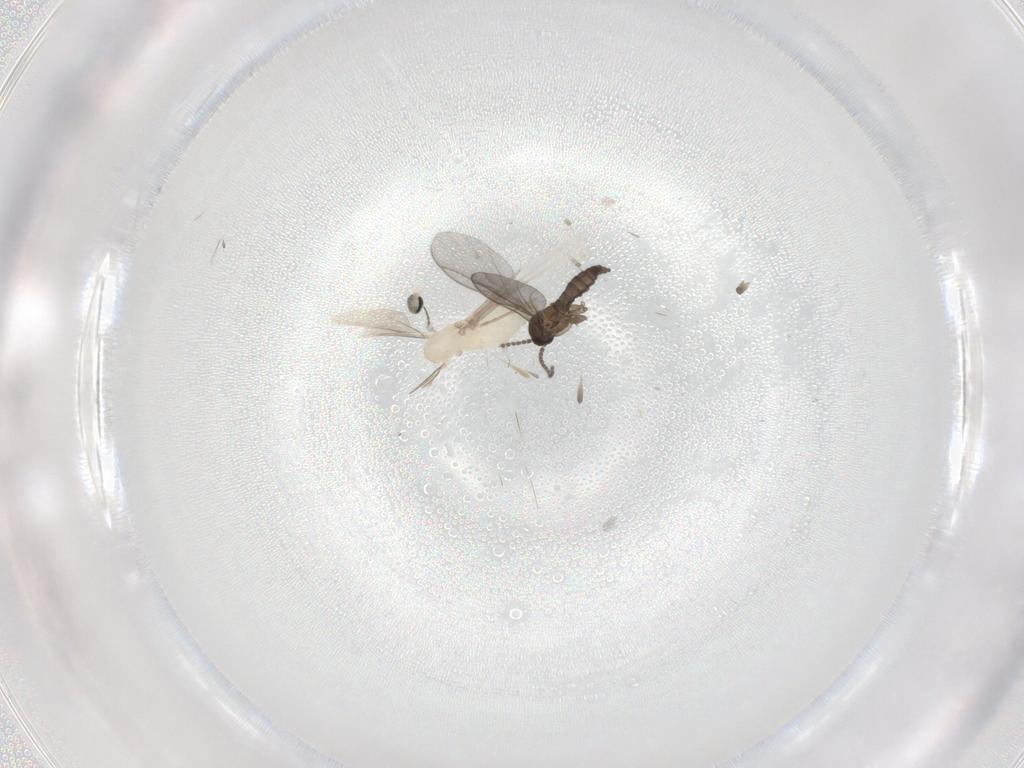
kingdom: Animalia
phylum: Arthropoda
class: Insecta
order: Diptera
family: Cecidomyiidae
